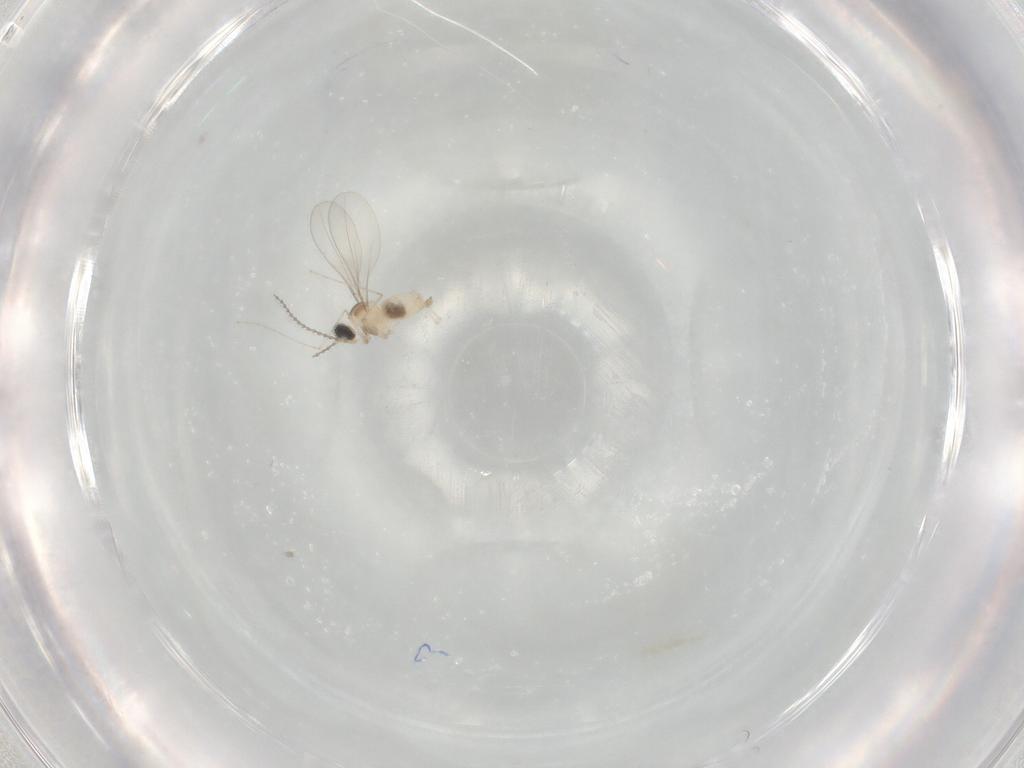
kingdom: Animalia
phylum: Arthropoda
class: Insecta
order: Diptera
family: Cecidomyiidae
